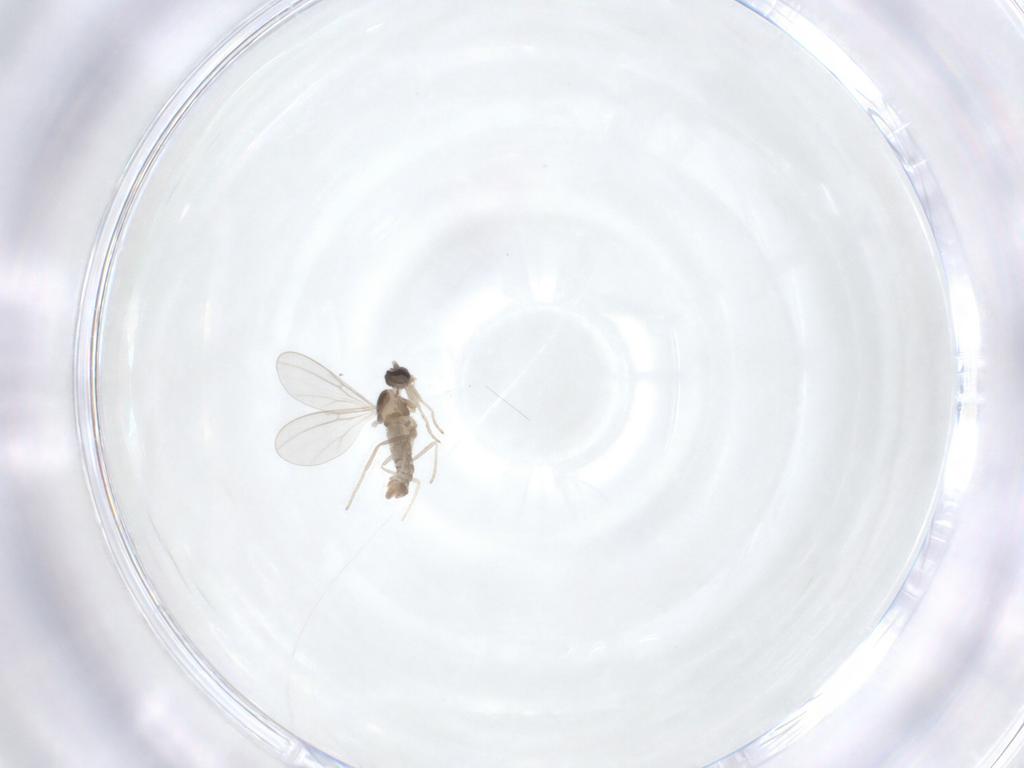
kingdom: Animalia
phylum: Arthropoda
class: Insecta
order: Diptera
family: Cecidomyiidae
